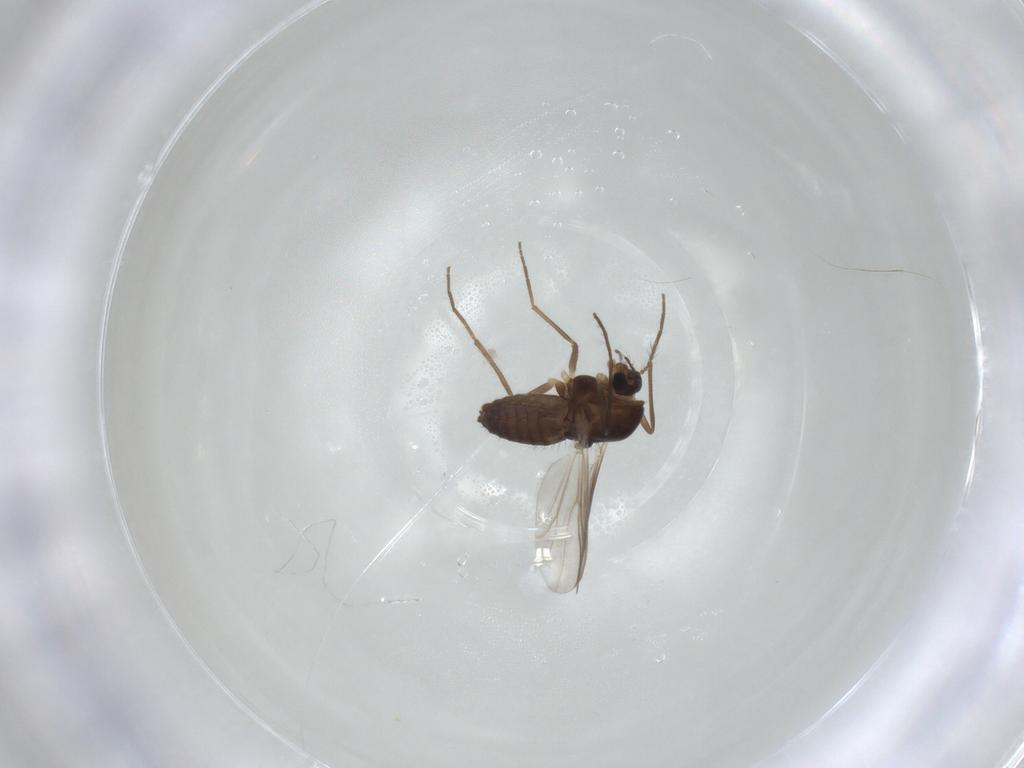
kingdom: Animalia
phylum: Arthropoda
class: Insecta
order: Diptera
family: Chironomidae
